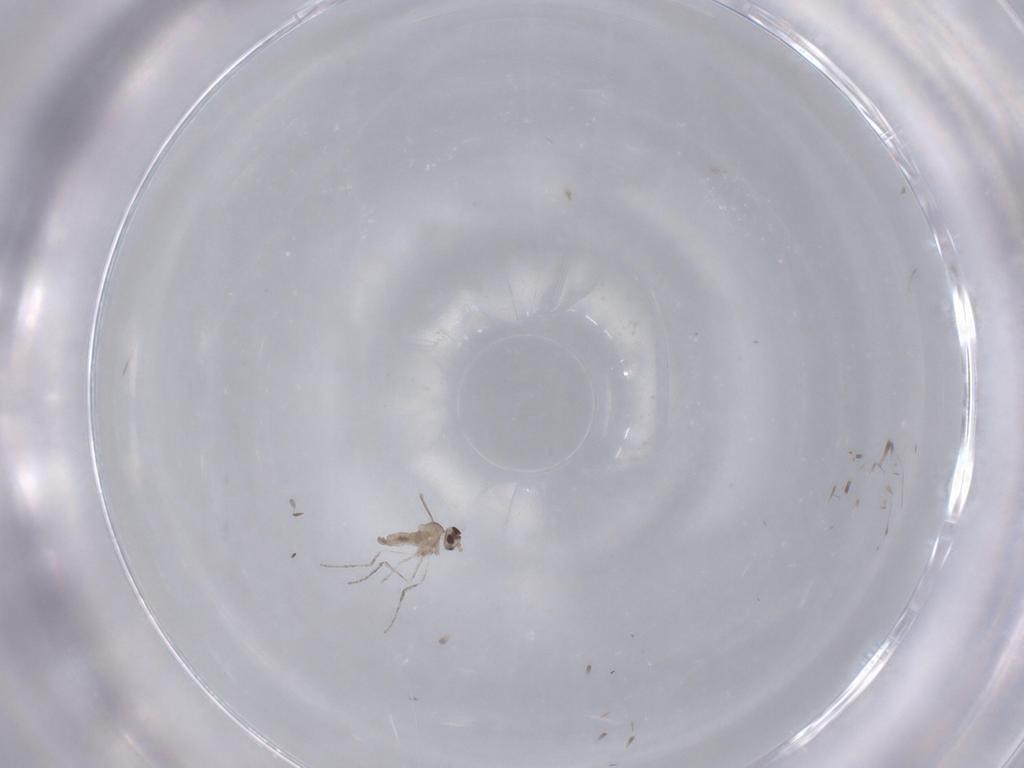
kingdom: Animalia
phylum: Arthropoda
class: Insecta
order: Diptera
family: Cecidomyiidae
